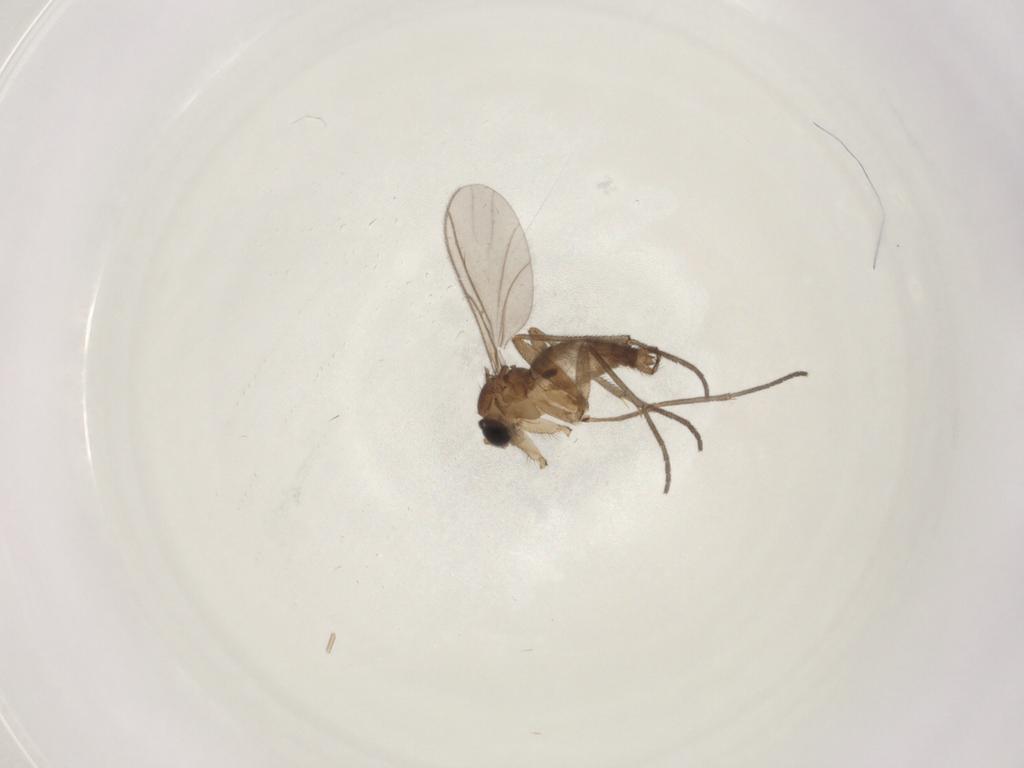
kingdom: Animalia
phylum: Arthropoda
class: Insecta
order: Diptera
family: Sciaridae
